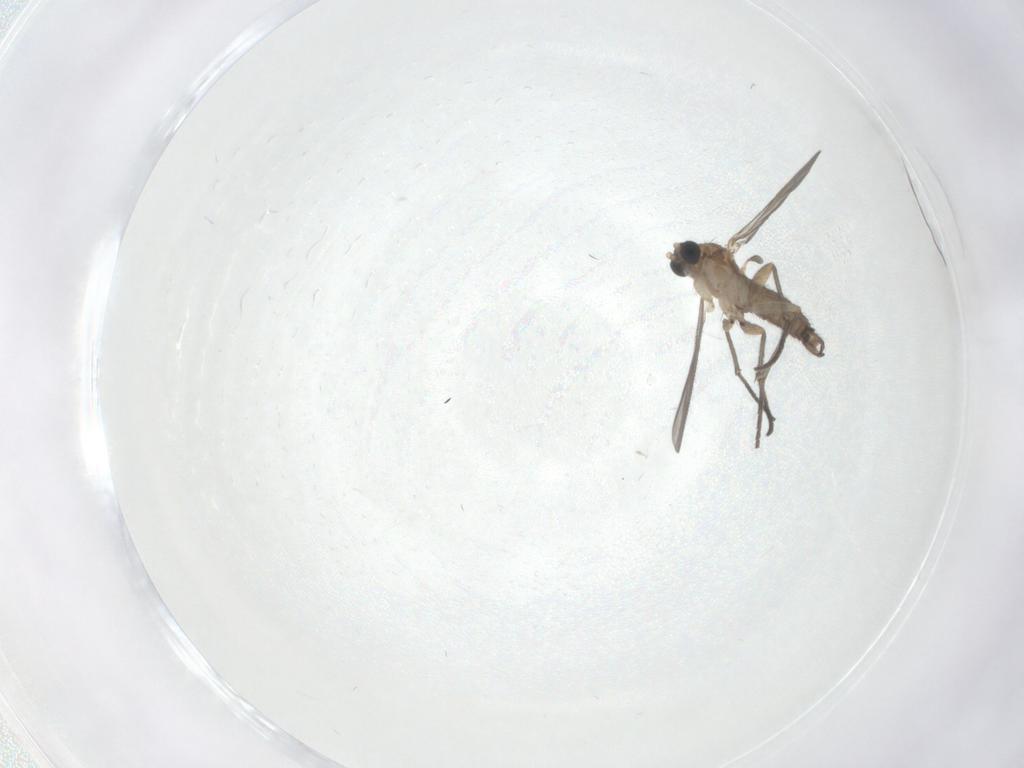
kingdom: Animalia
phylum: Arthropoda
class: Insecta
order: Diptera
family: Sciaridae
